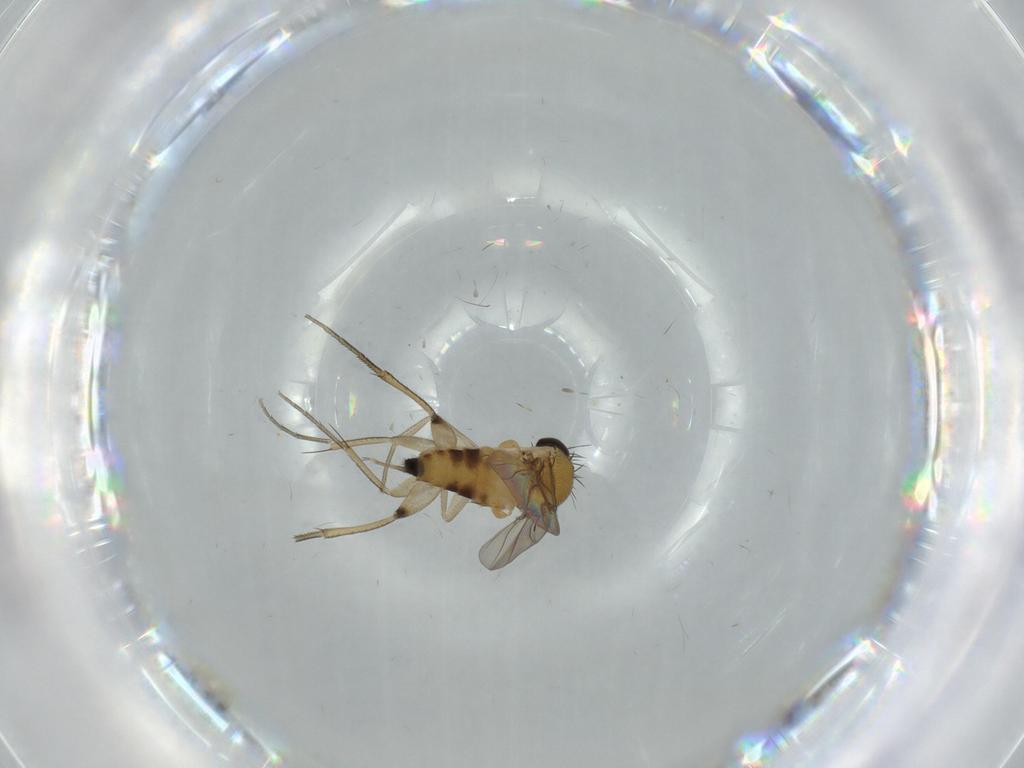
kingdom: Animalia
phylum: Arthropoda
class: Insecta
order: Diptera
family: Phoridae
